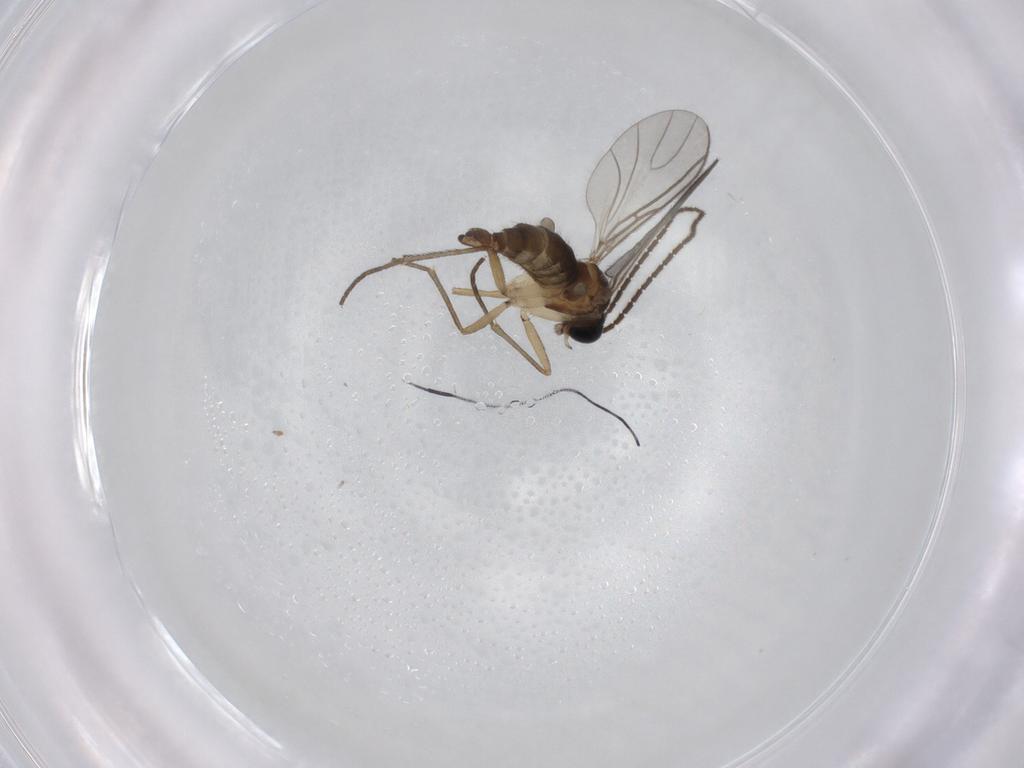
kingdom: Animalia
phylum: Arthropoda
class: Insecta
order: Diptera
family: Sciaridae
